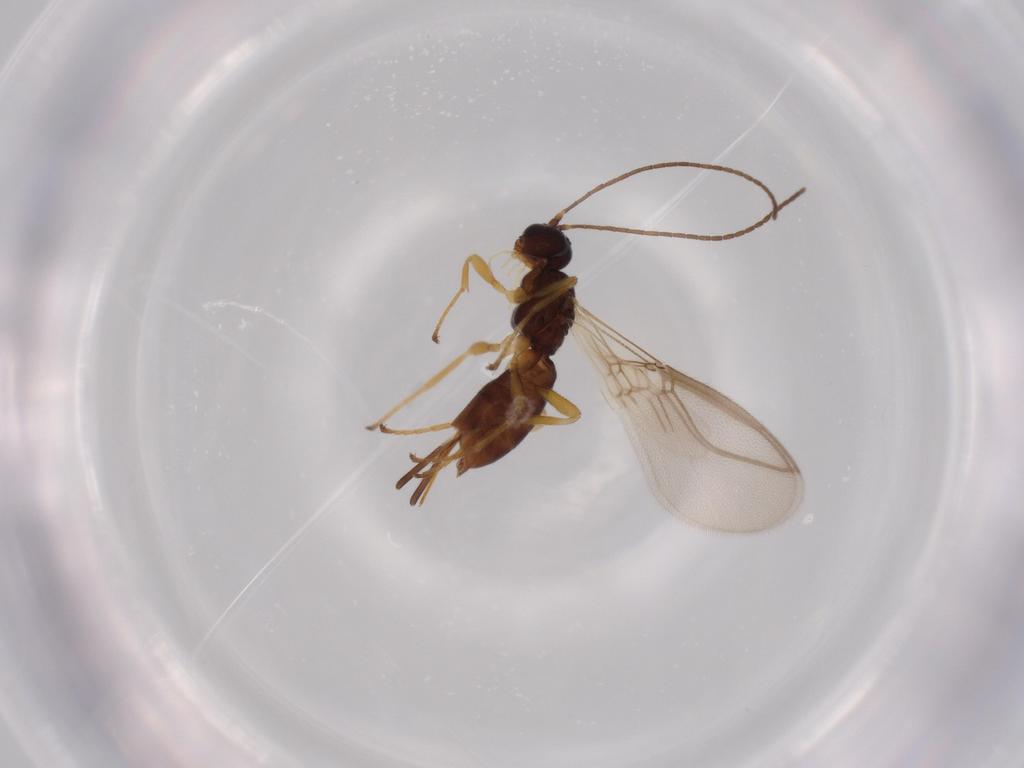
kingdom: Animalia
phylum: Arthropoda
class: Insecta
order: Hymenoptera
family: Braconidae
